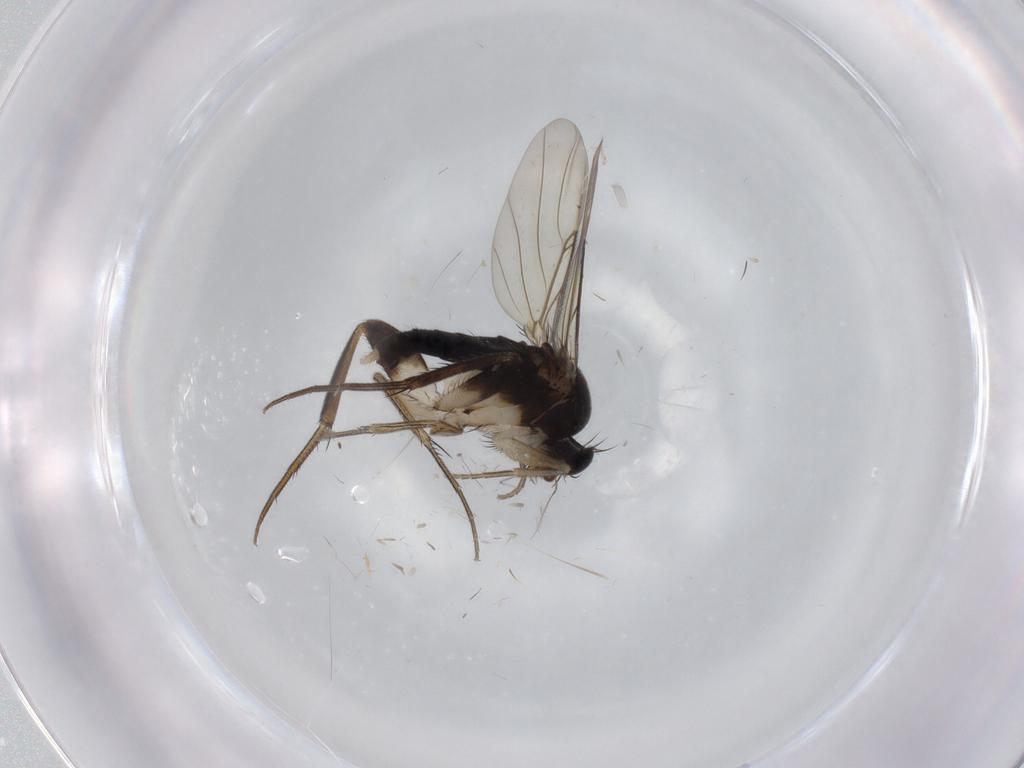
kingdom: Animalia
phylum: Arthropoda
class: Insecta
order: Diptera
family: Phoridae
